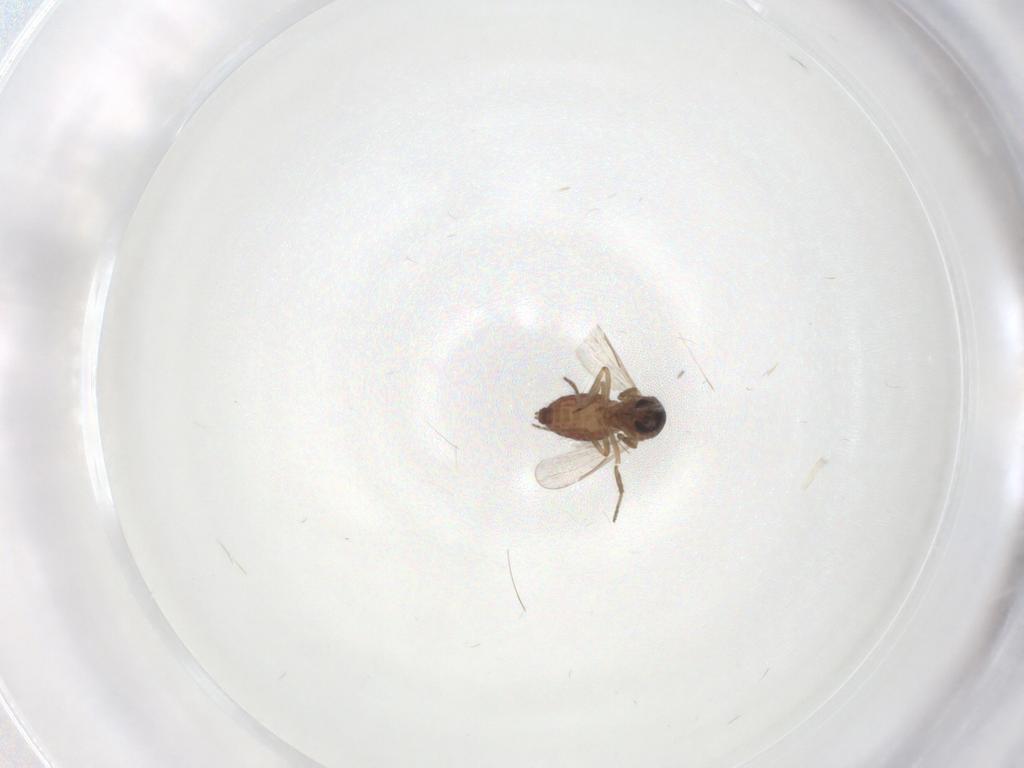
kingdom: Animalia
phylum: Arthropoda
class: Insecta
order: Diptera
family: Ceratopogonidae
